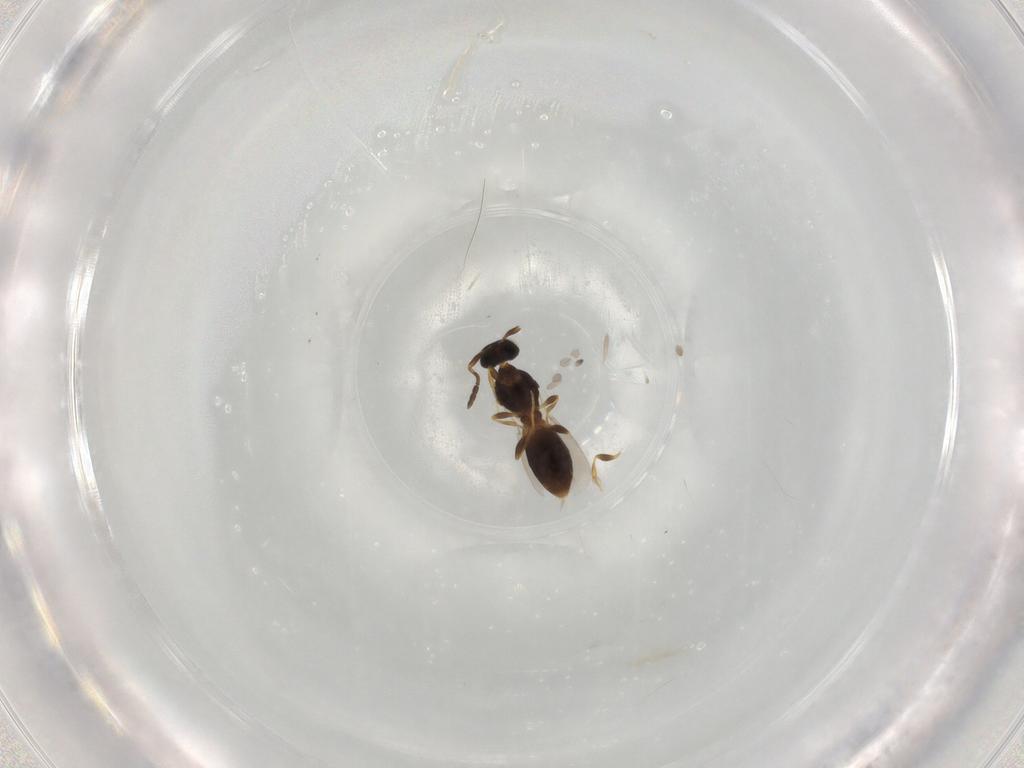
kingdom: Animalia
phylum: Arthropoda
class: Insecta
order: Hymenoptera
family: Platygastridae
